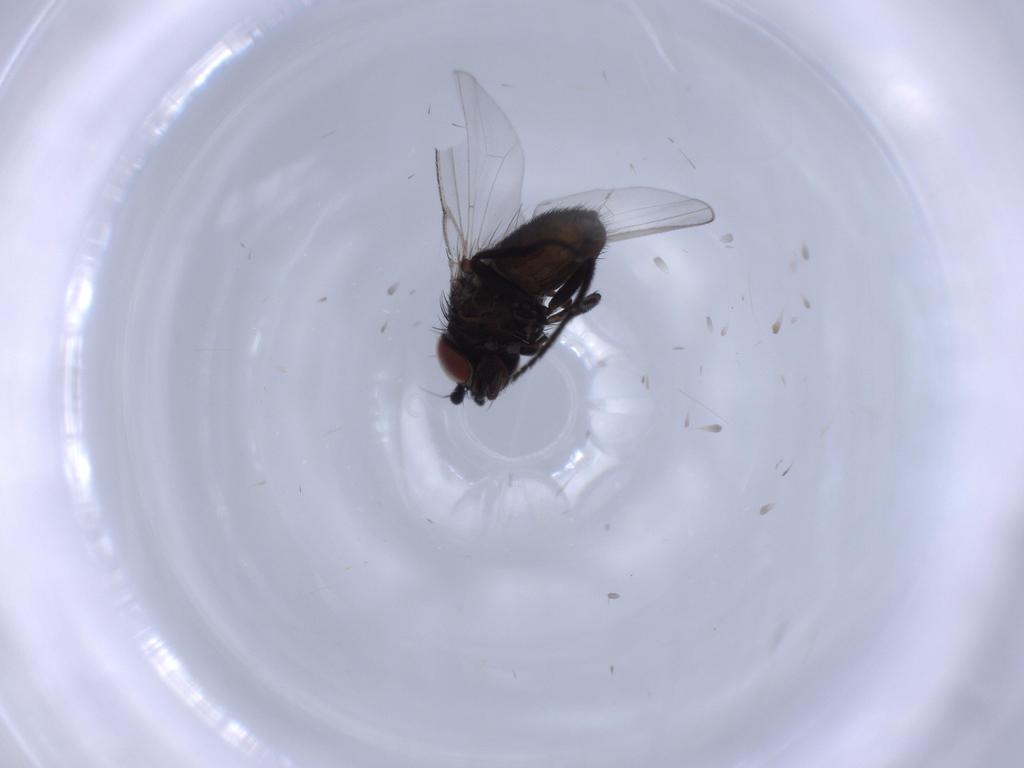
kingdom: Animalia
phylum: Arthropoda
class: Insecta
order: Diptera
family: Milichiidae
